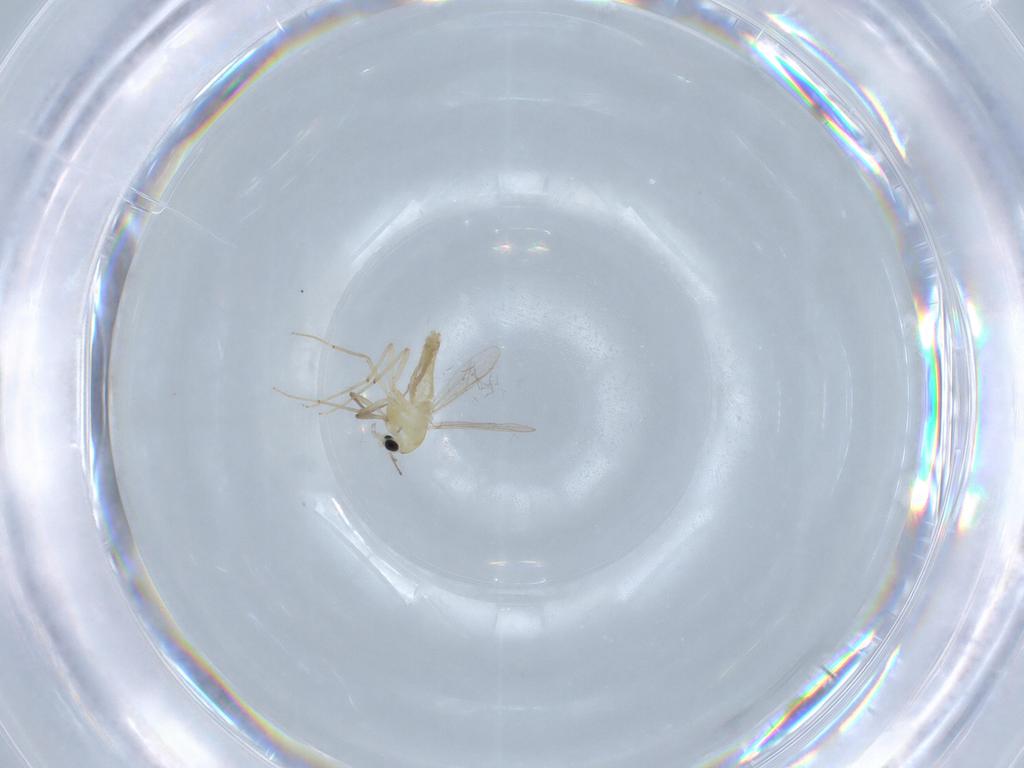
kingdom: Animalia
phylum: Arthropoda
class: Insecta
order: Diptera
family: Chironomidae
